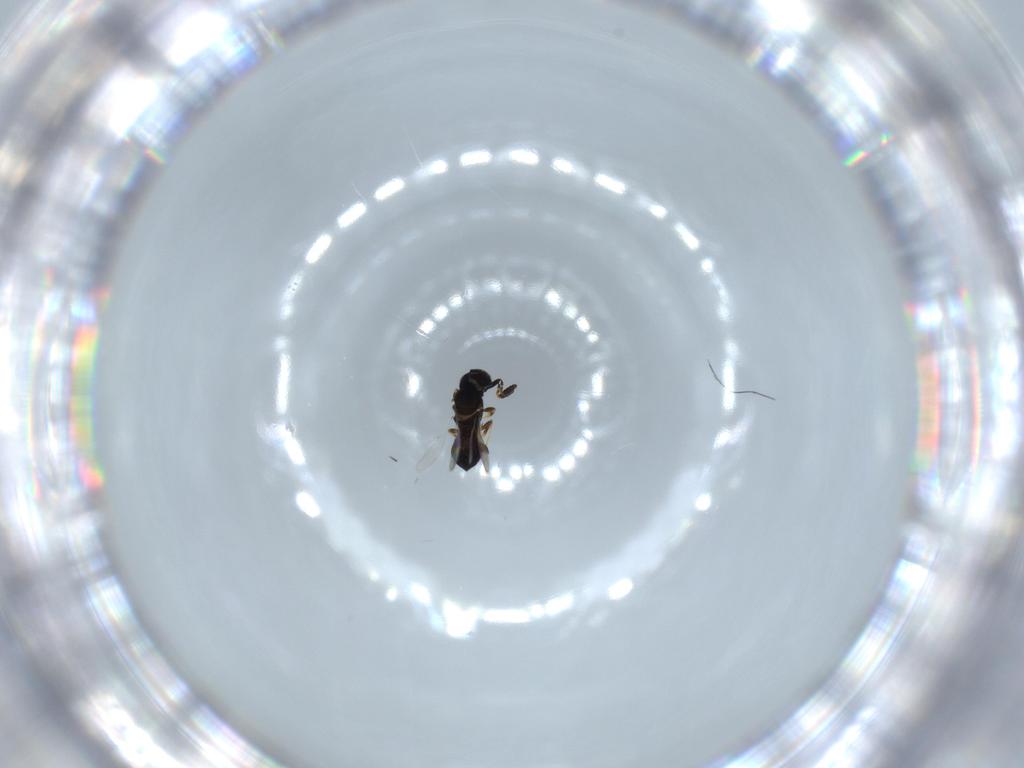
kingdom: Animalia
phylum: Arthropoda
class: Insecta
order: Hymenoptera
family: Scelionidae
